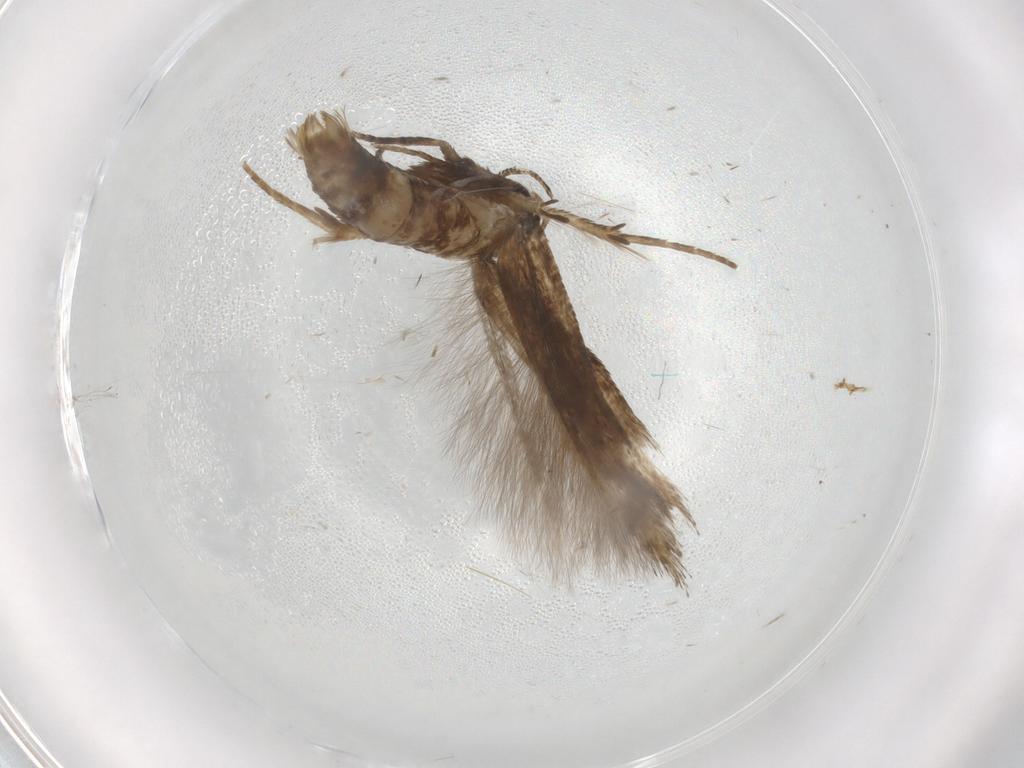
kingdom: Animalia
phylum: Arthropoda
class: Insecta
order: Lepidoptera
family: Cosmopterigidae
